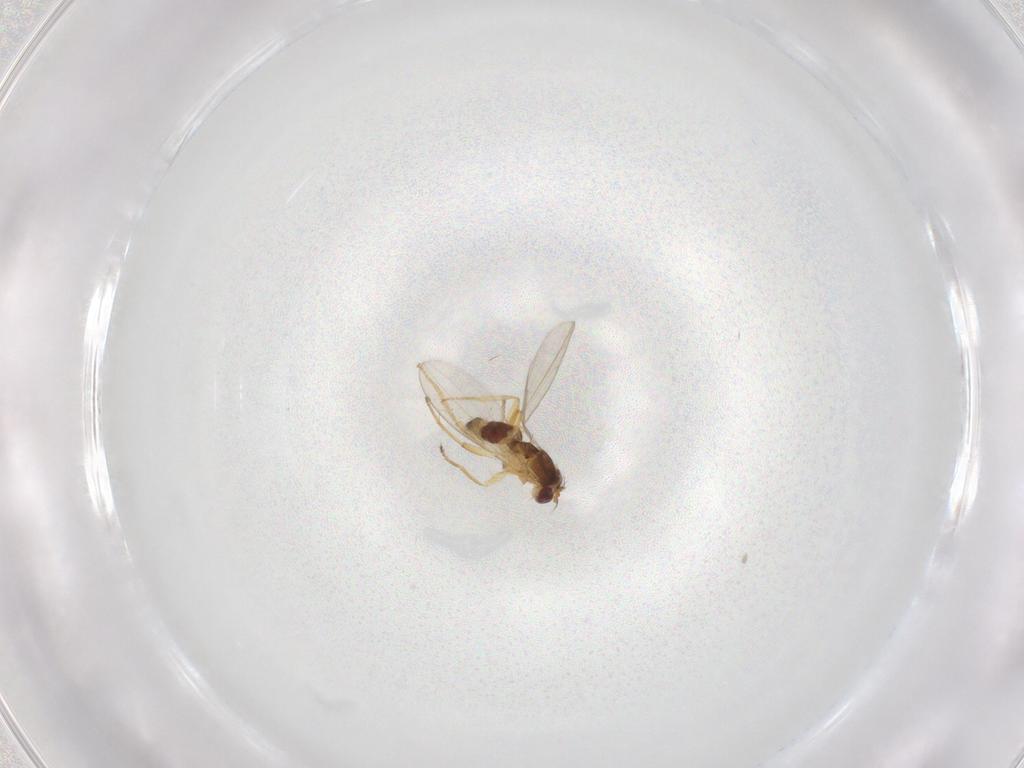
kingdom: Animalia
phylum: Arthropoda
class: Insecta
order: Diptera
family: Periscelididae
